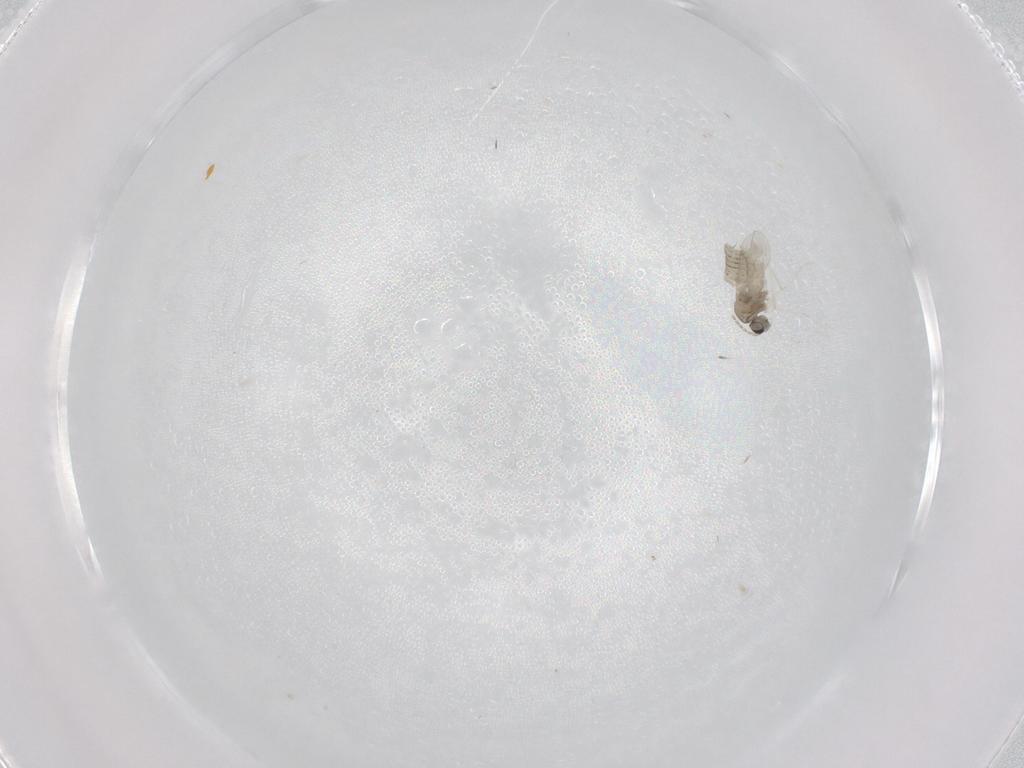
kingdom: Animalia
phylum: Arthropoda
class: Insecta
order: Diptera
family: Cecidomyiidae
